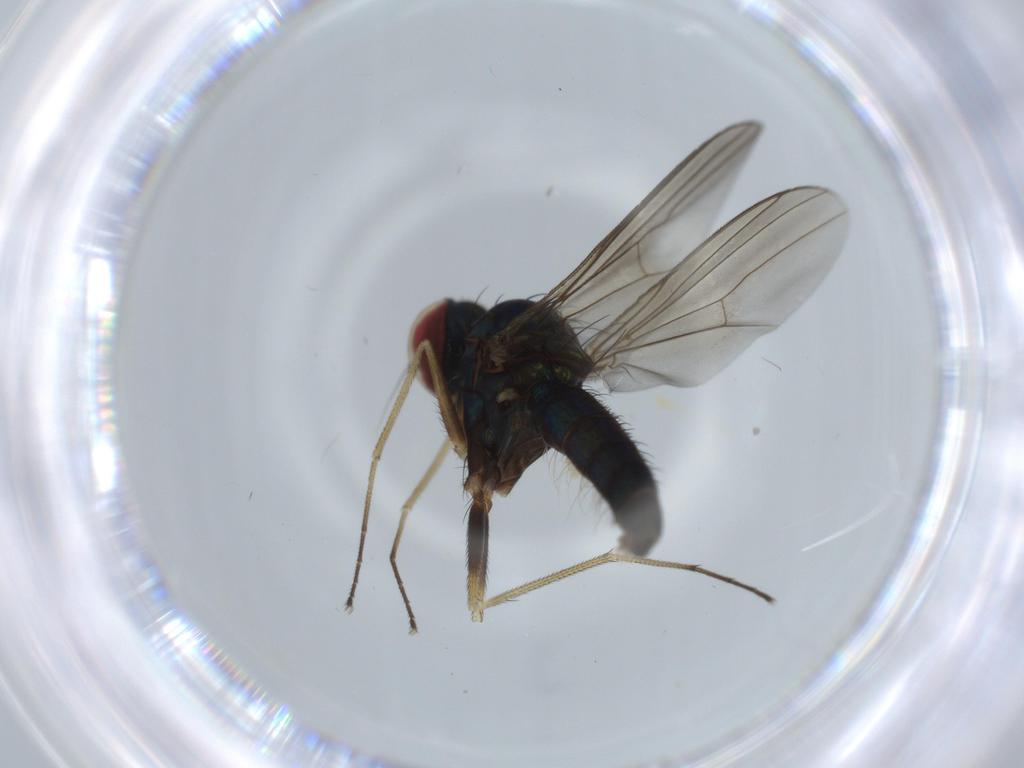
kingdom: Animalia
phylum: Arthropoda
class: Insecta
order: Diptera
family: Dolichopodidae
